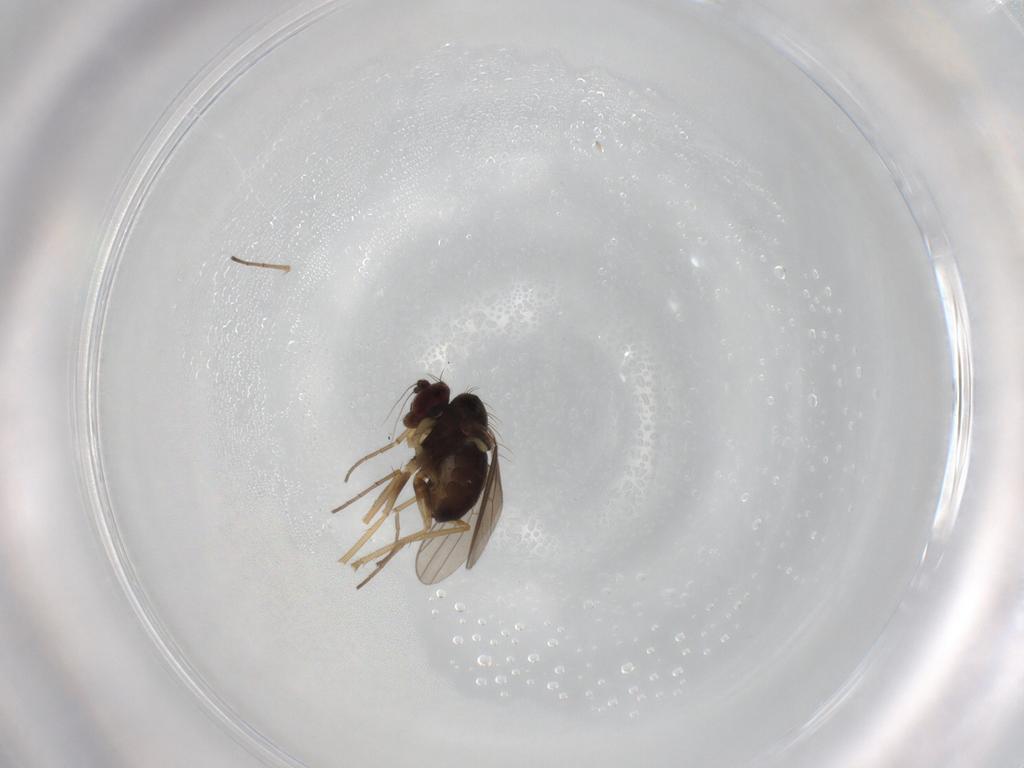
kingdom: Animalia
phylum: Arthropoda
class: Insecta
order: Diptera
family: Dolichopodidae
